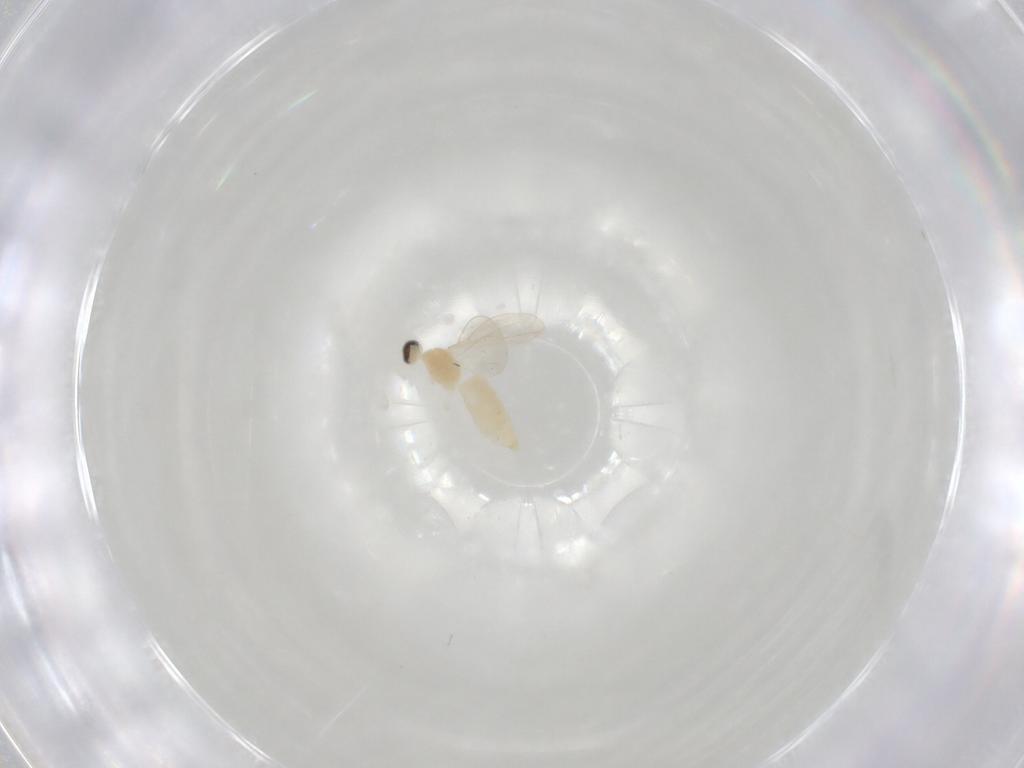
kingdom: Animalia
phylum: Arthropoda
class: Insecta
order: Diptera
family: Cecidomyiidae
